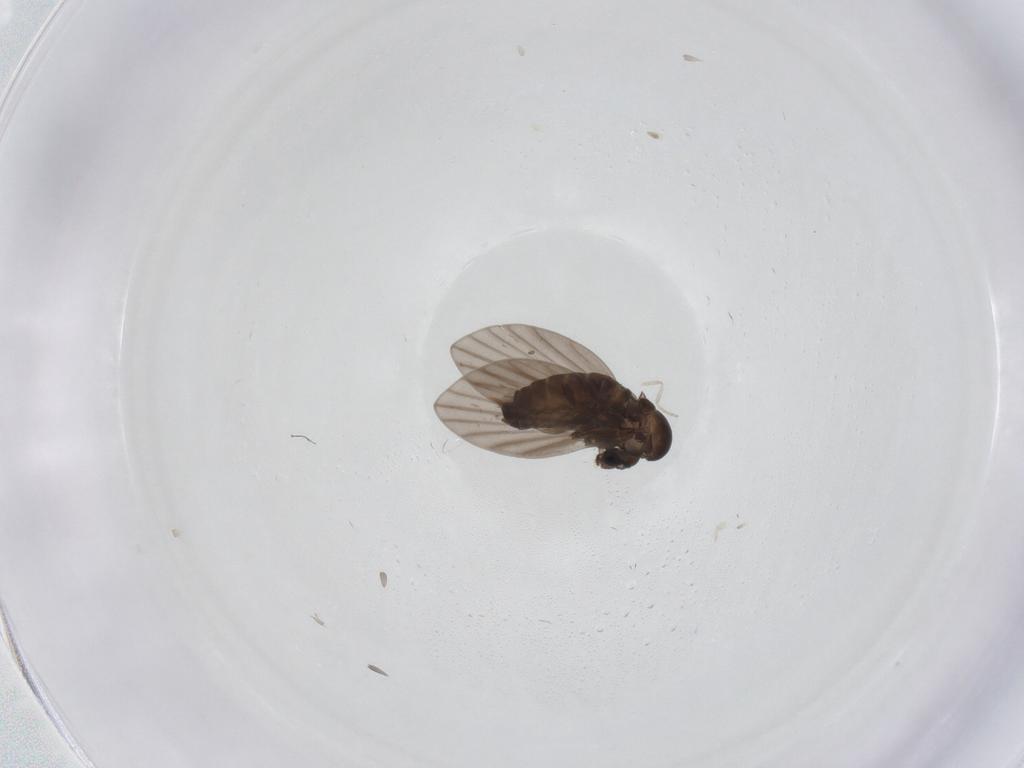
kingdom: Animalia
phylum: Arthropoda
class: Insecta
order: Diptera
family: Psychodidae
